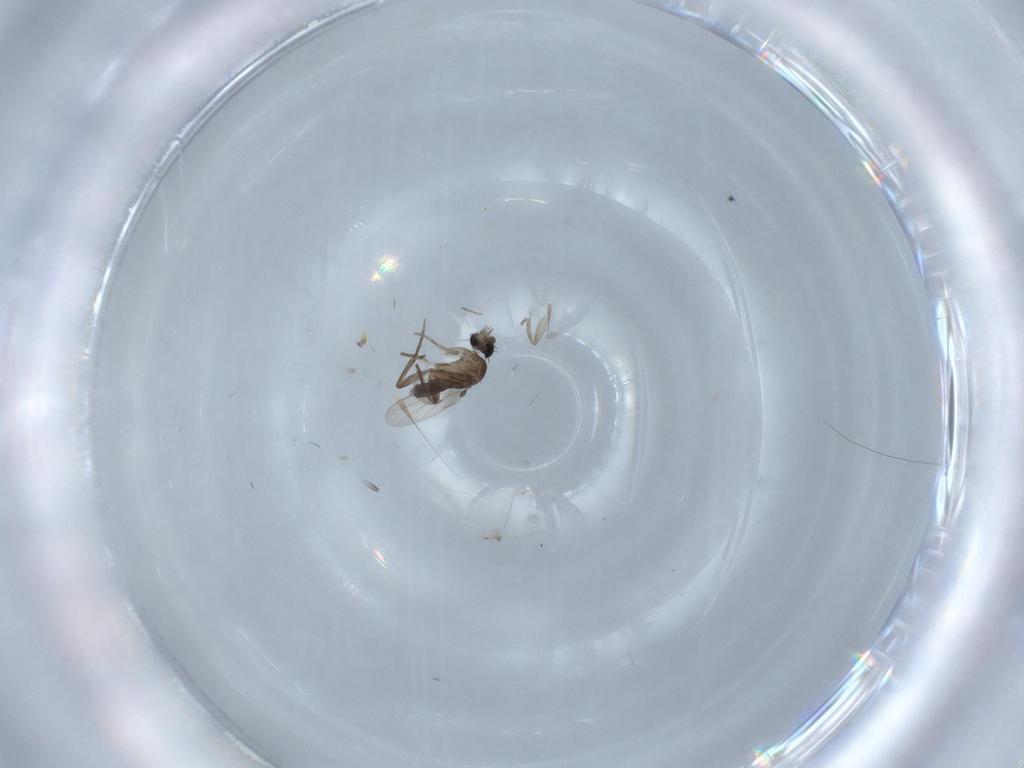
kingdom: Animalia
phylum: Arthropoda
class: Insecta
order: Diptera
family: Phoridae
